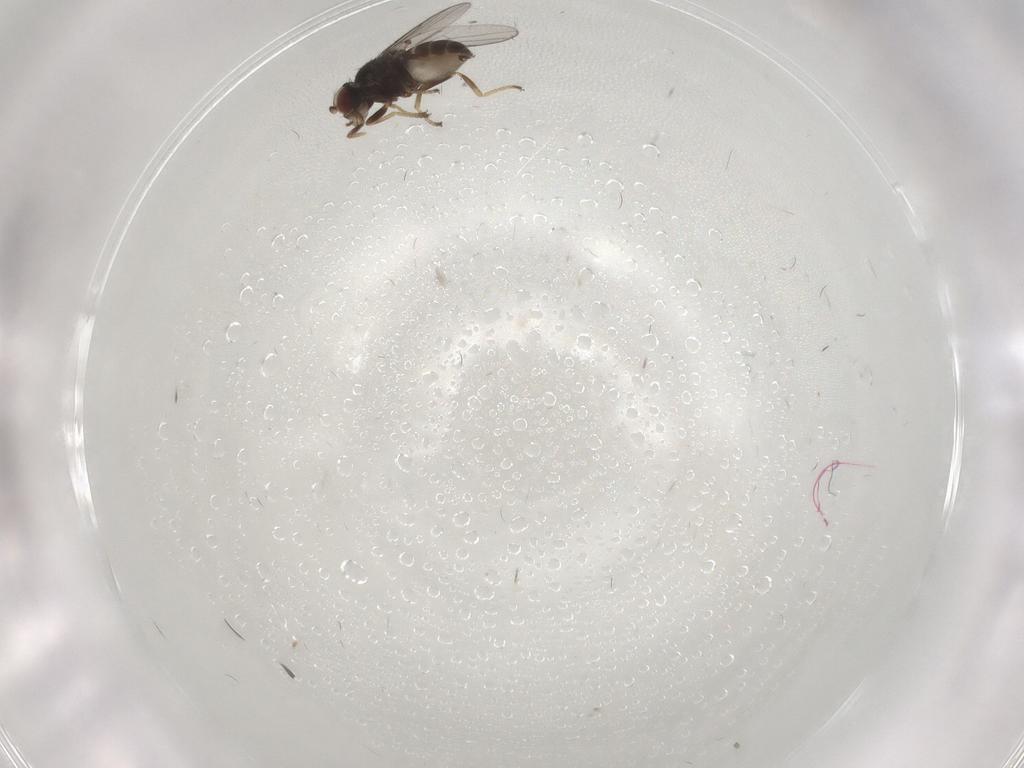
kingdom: Animalia
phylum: Arthropoda
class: Insecta
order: Diptera
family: Chloropidae
